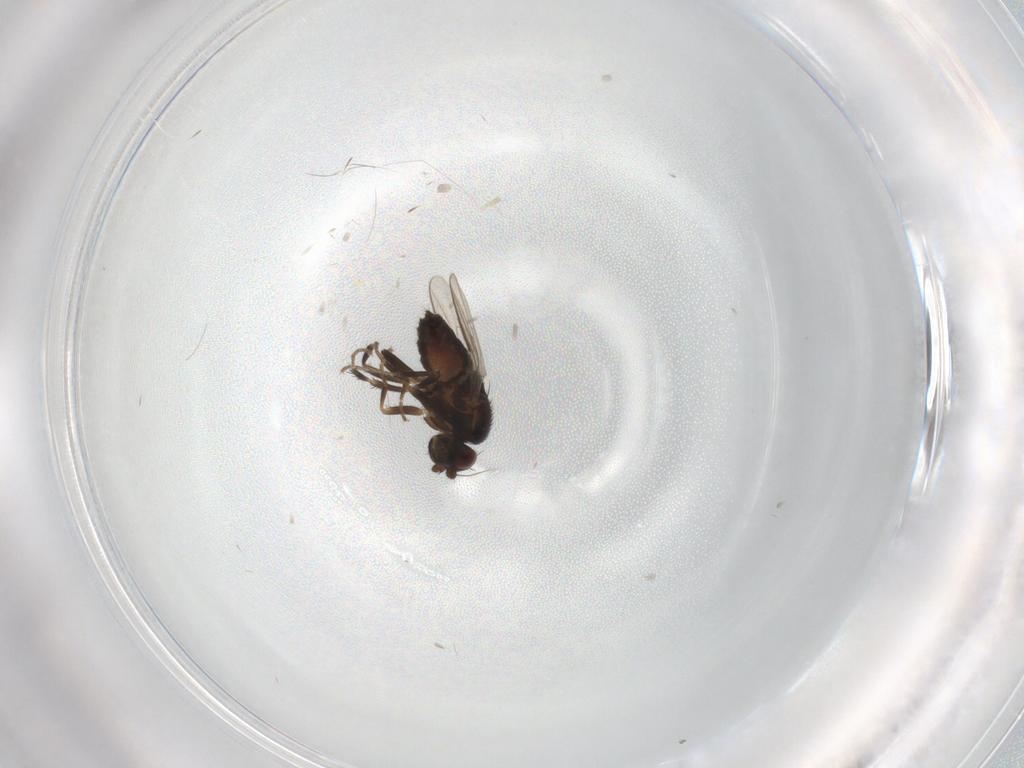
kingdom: Animalia
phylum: Arthropoda
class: Insecta
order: Diptera
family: Sphaeroceridae
